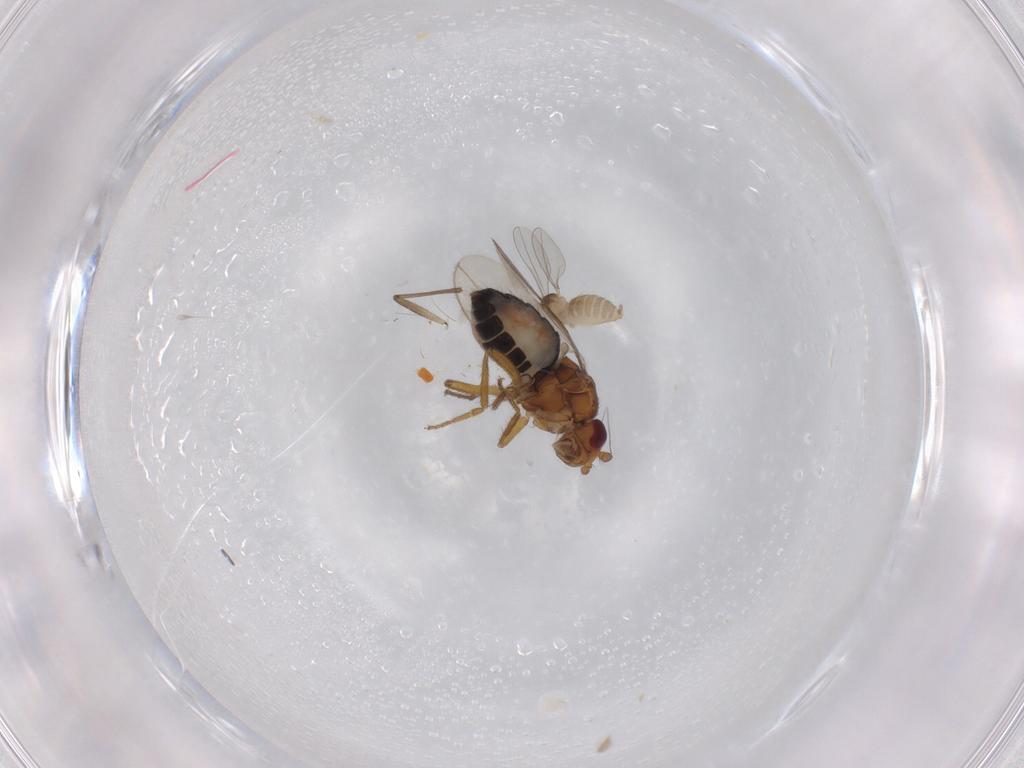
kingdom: Animalia
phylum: Arthropoda
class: Insecta
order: Diptera
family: Sphaeroceridae
